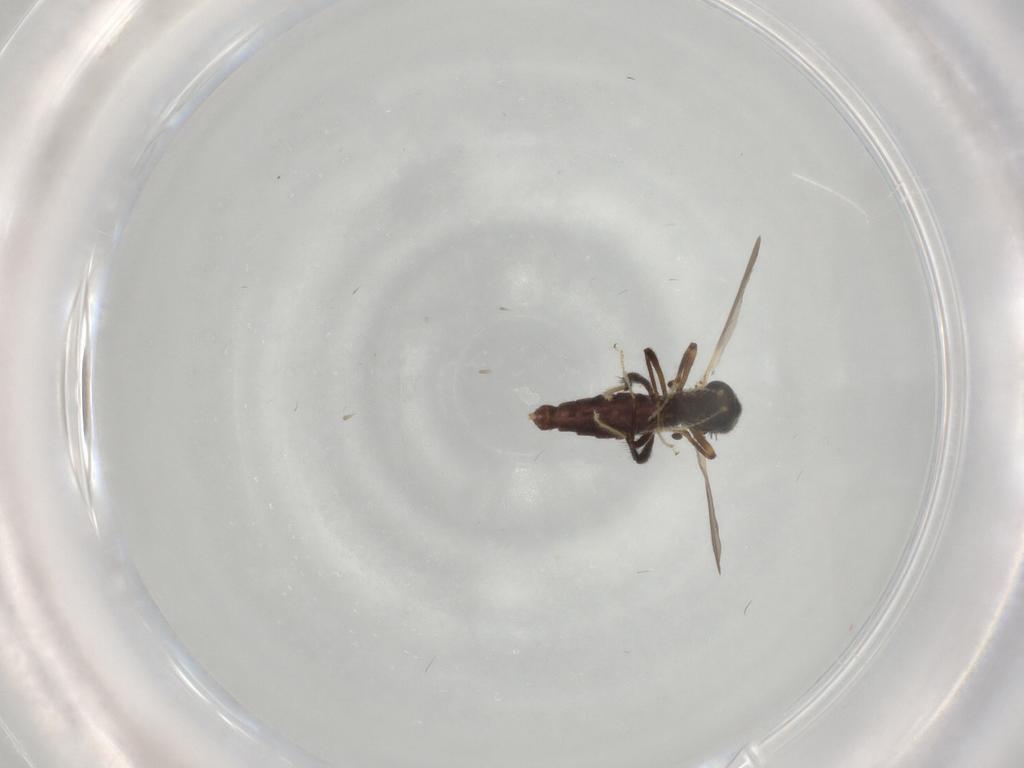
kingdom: Animalia
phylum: Arthropoda
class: Insecta
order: Diptera
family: Ceratopogonidae
